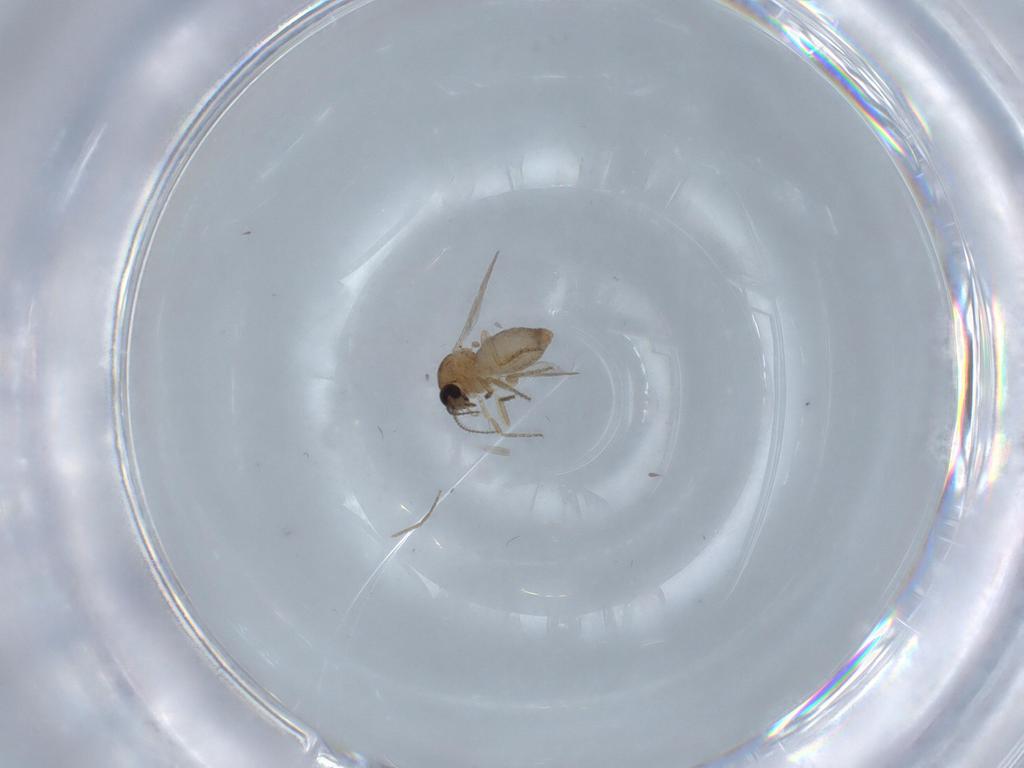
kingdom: Animalia
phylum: Arthropoda
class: Insecta
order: Diptera
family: Ceratopogonidae
